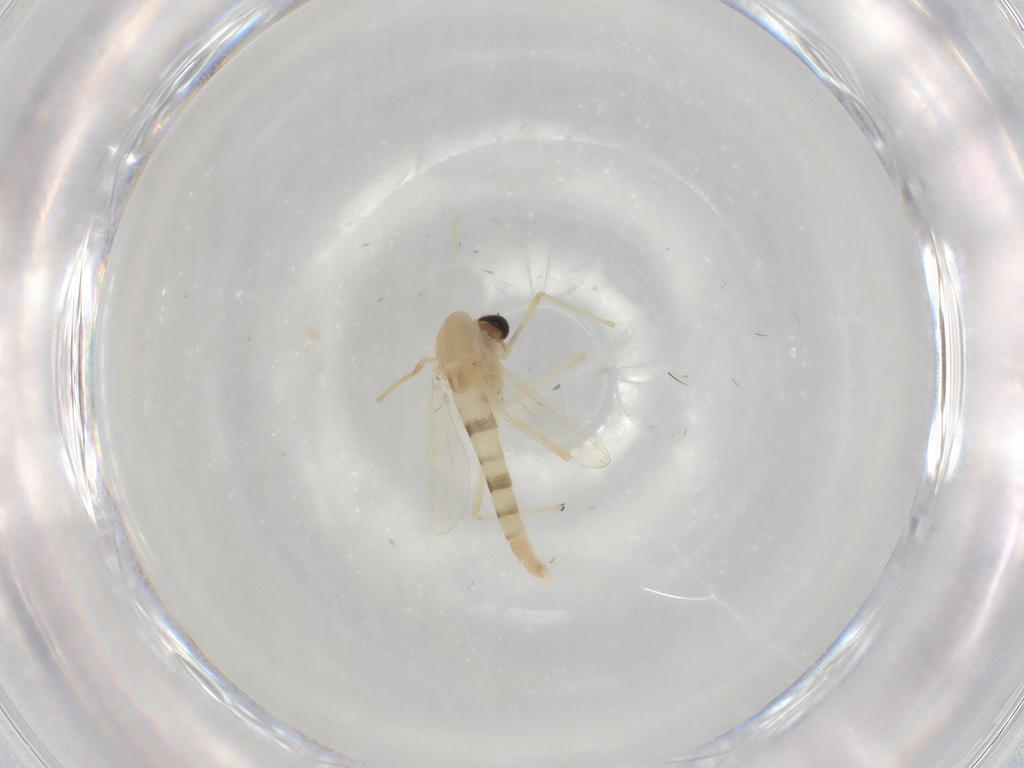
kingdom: Animalia
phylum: Arthropoda
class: Insecta
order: Diptera
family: Chironomidae
